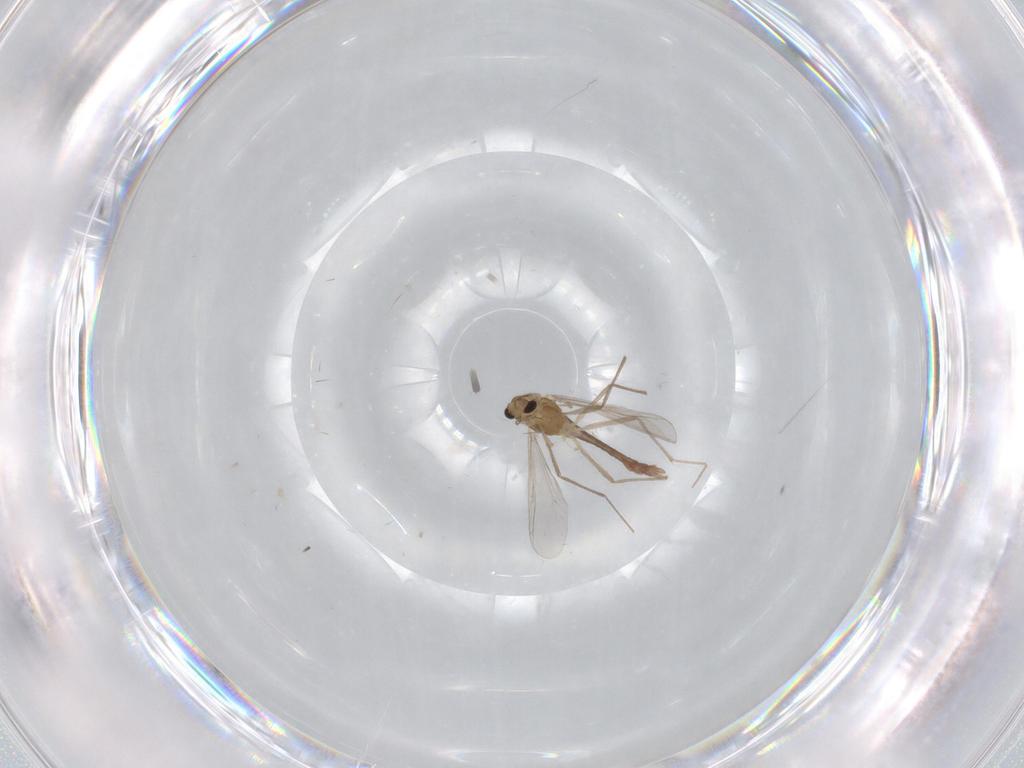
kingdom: Animalia
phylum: Arthropoda
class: Insecta
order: Diptera
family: Chironomidae
